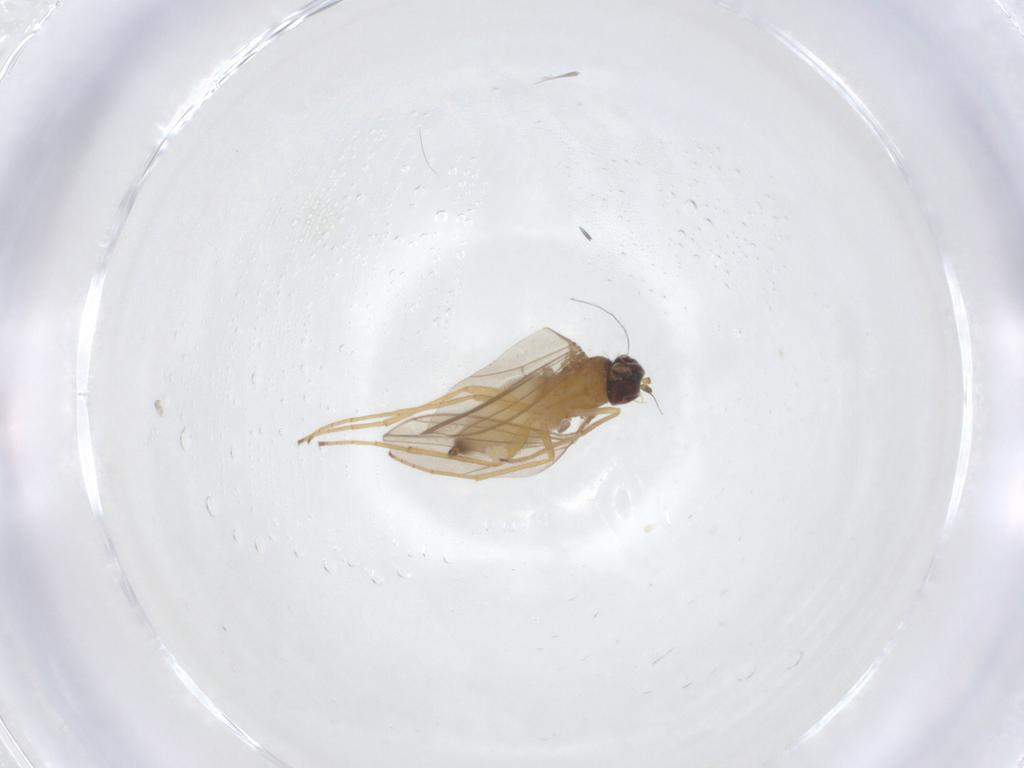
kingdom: Animalia
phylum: Arthropoda
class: Insecta
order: Diptera
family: Dolichopodidae
